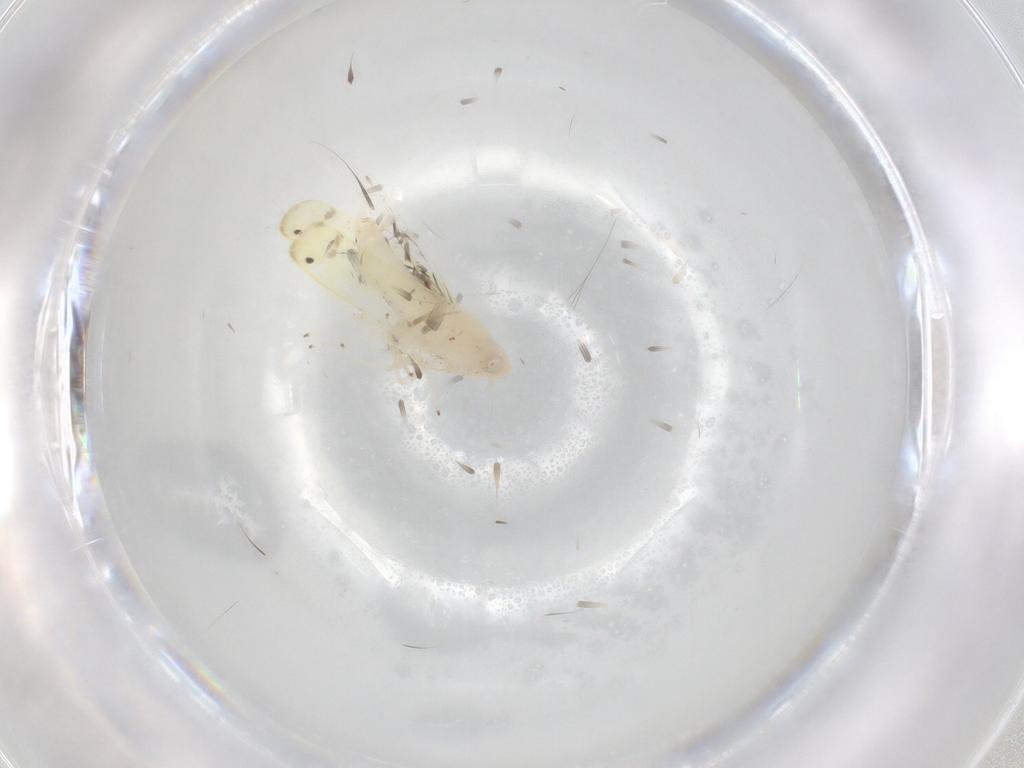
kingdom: Animalia
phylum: Arthropoda
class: Insecta
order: Hemiptera
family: Cicadellidae
